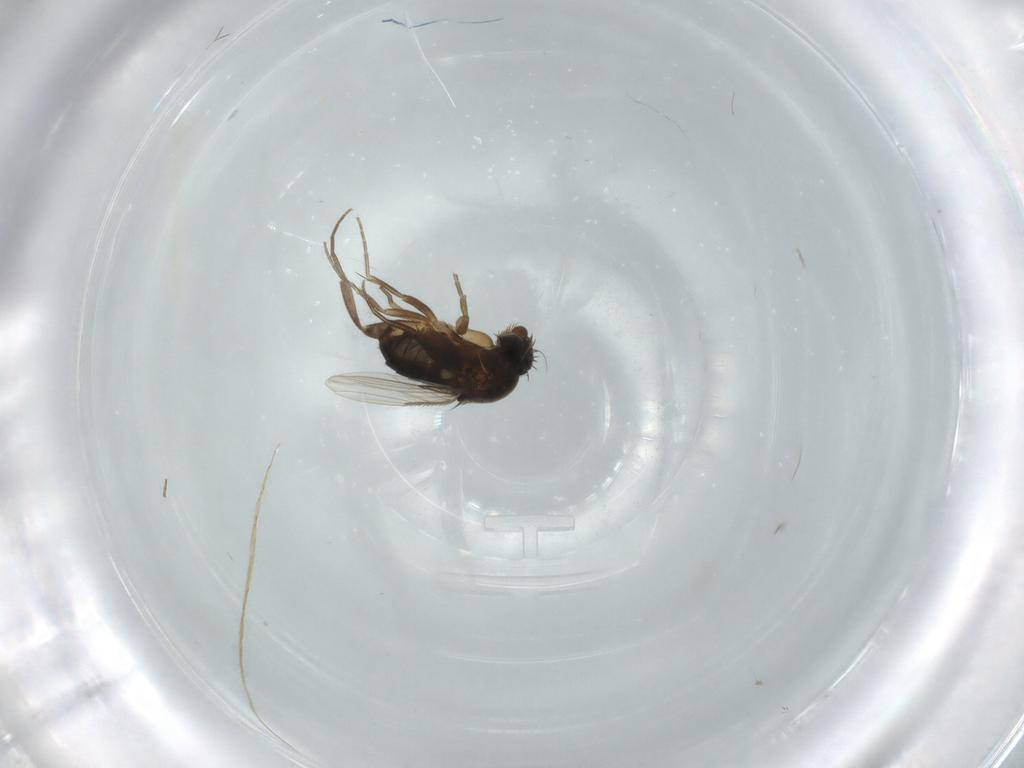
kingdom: Animalia
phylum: Arthropoda
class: Insecta
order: Diptera
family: Phoridae
